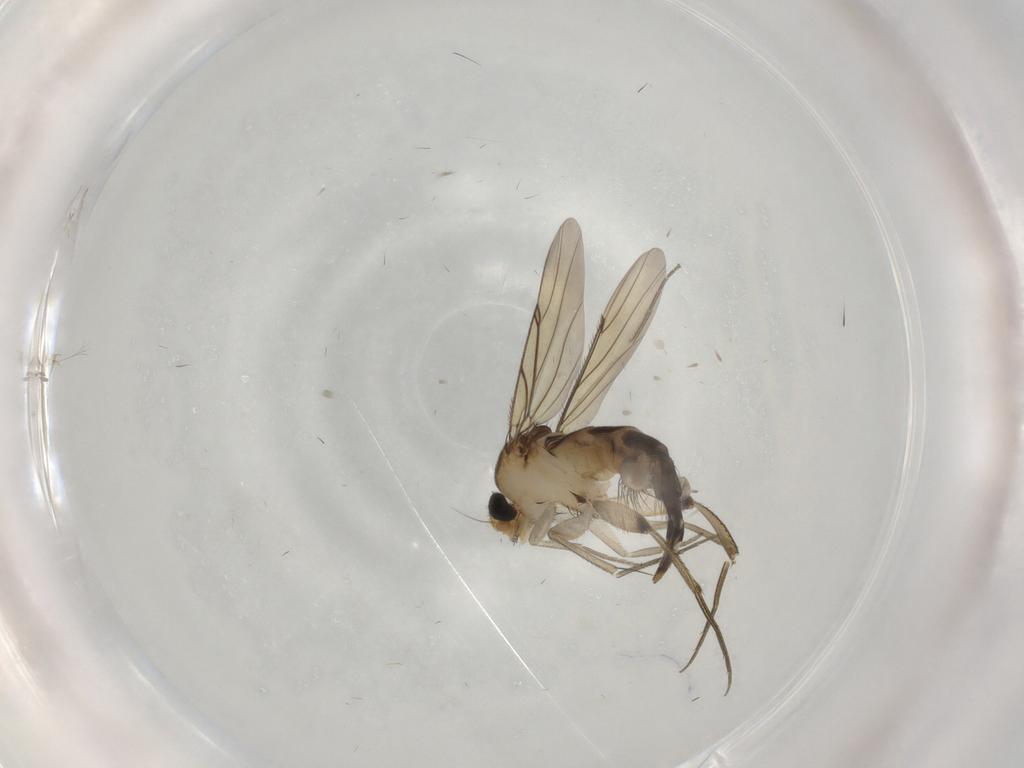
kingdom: Animalia
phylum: Arthropoda
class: Insecta
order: Diptera
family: Phoridae
